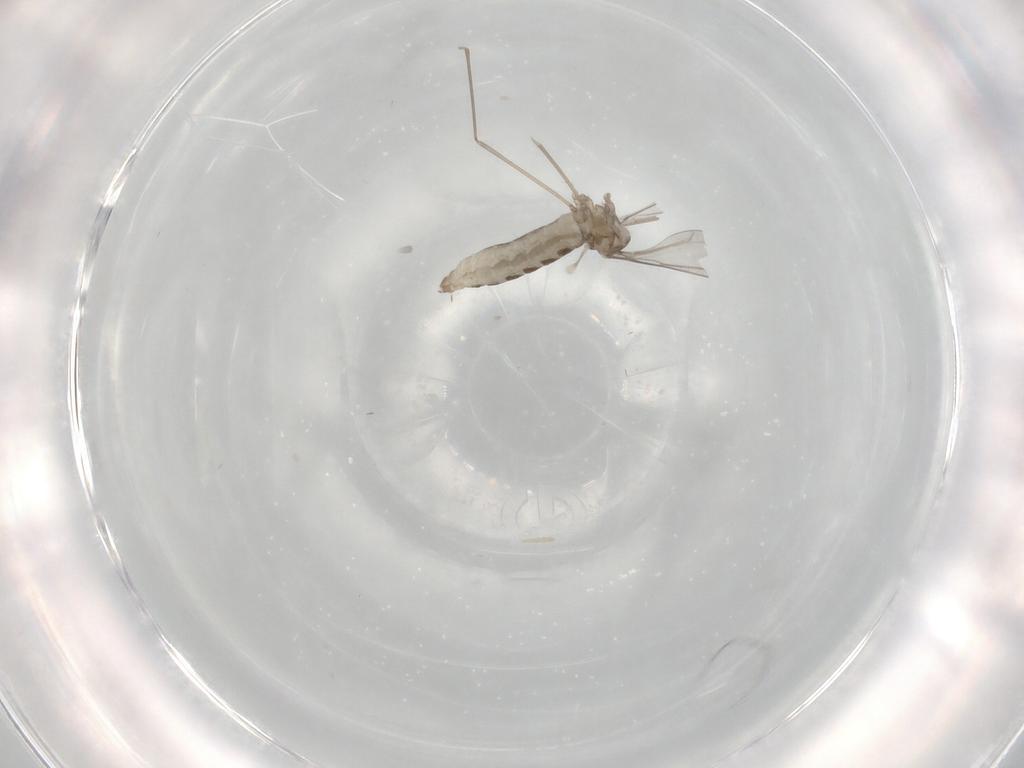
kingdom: Animalia
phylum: Arthropoda
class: Insecta
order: Diptera
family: Cecidomyiidae
